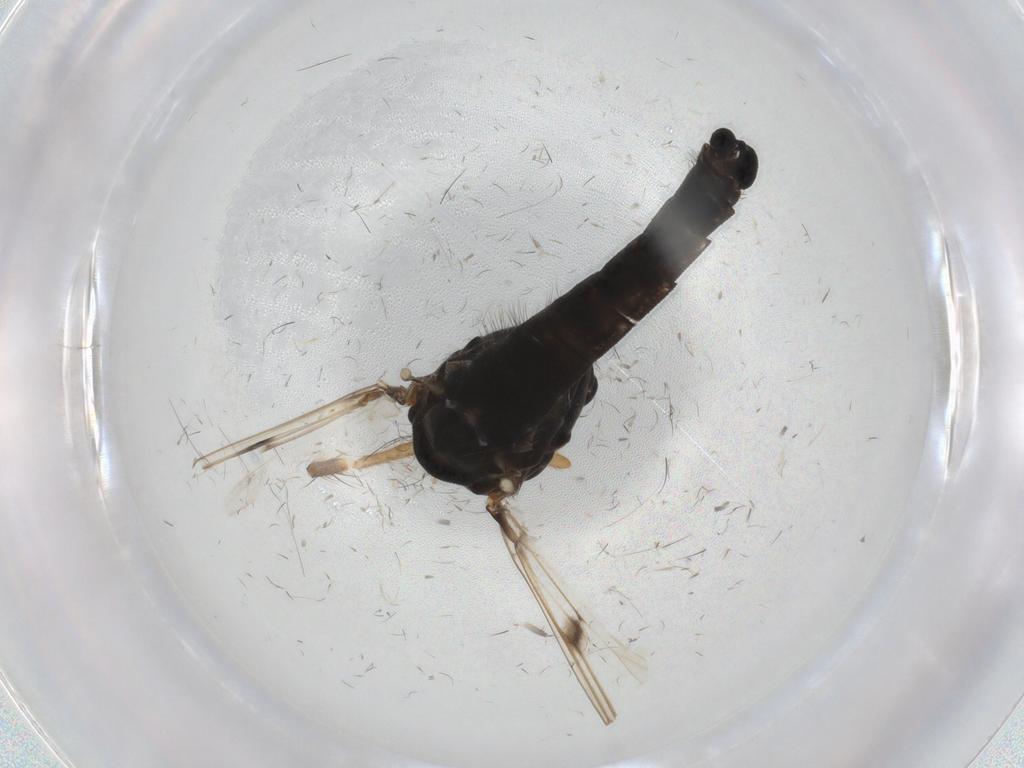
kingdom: Animalia
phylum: Arthropoda
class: Insecta
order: Diptera
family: Chironomidae
